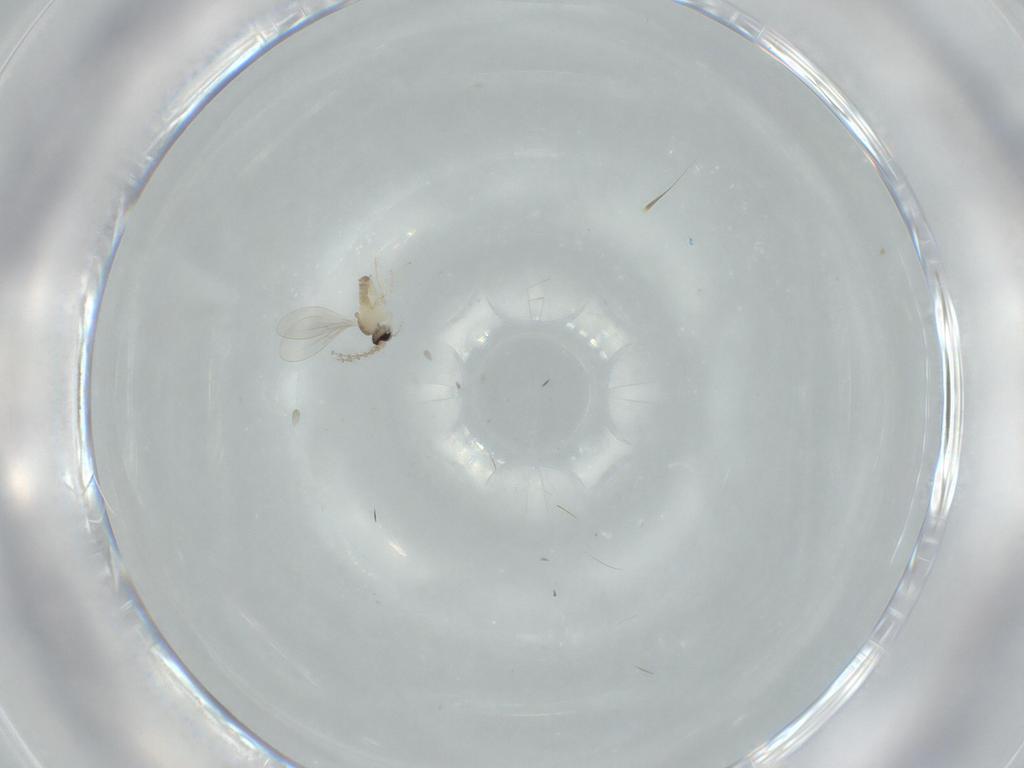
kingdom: Animalia
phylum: Arthropoda
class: Insecta
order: Diptera
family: Cecidomyiidae
